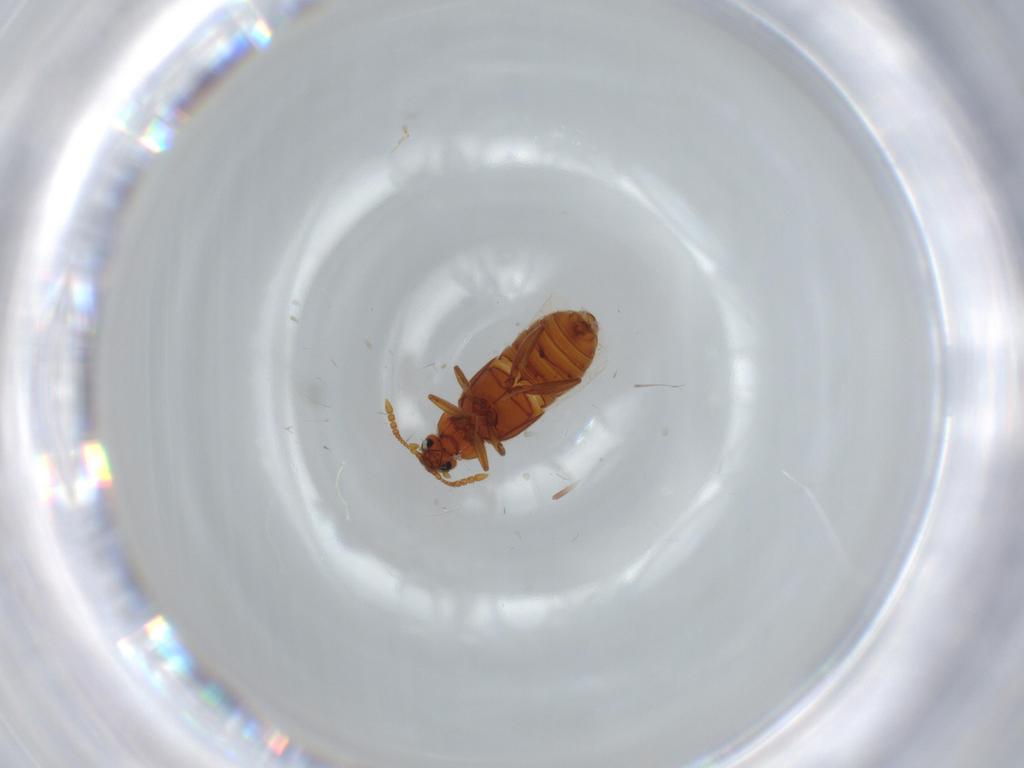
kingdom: Animalia
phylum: Arthropoda
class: Insecta
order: Coleoptera
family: Staphylinidae
